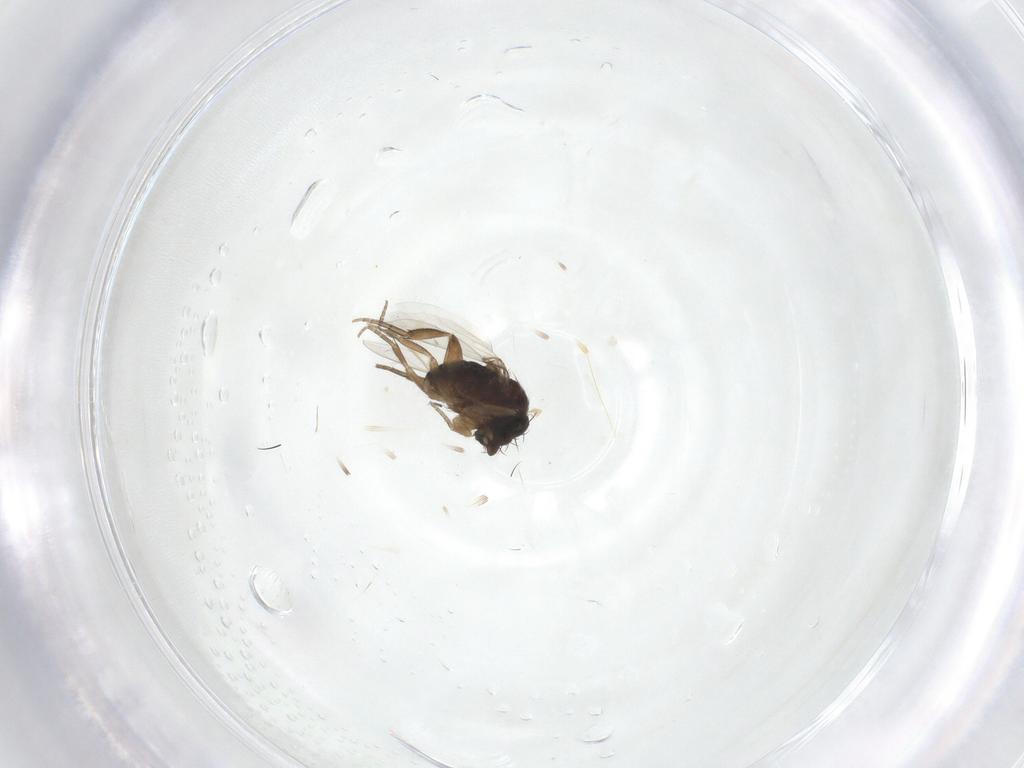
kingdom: Animalia
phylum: Arthropoda
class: Insecta
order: Diptera
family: Phoridae
